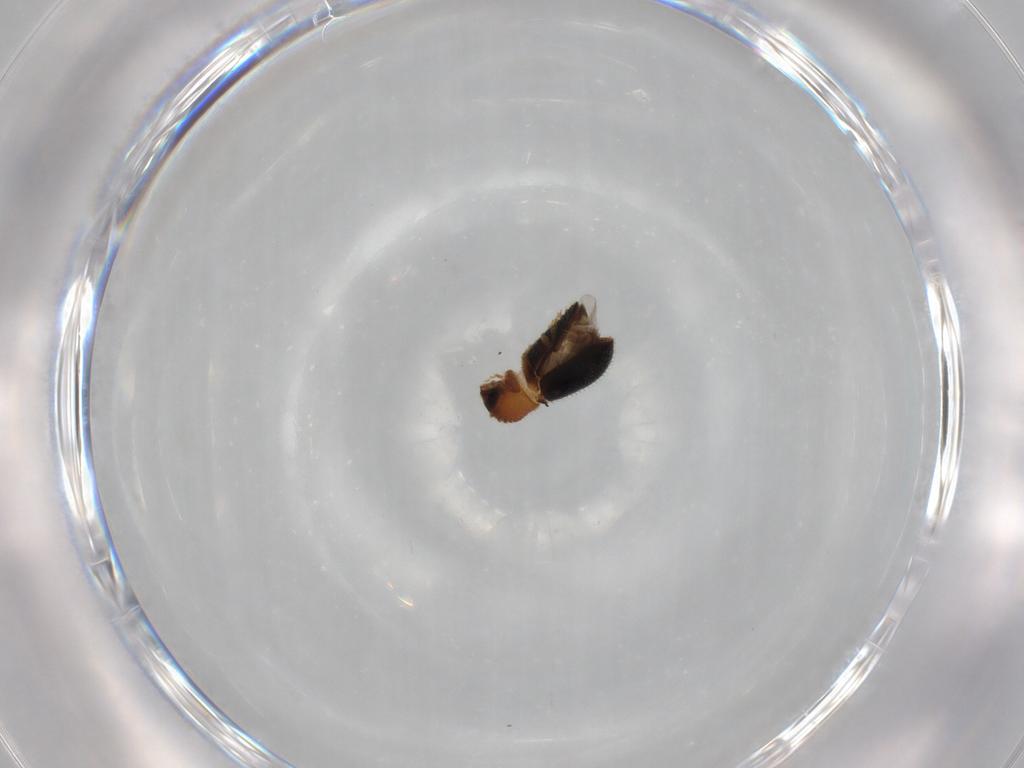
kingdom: Animalia
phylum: Arthropoda
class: Insecta
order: Coleoptera
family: Curculionidae
